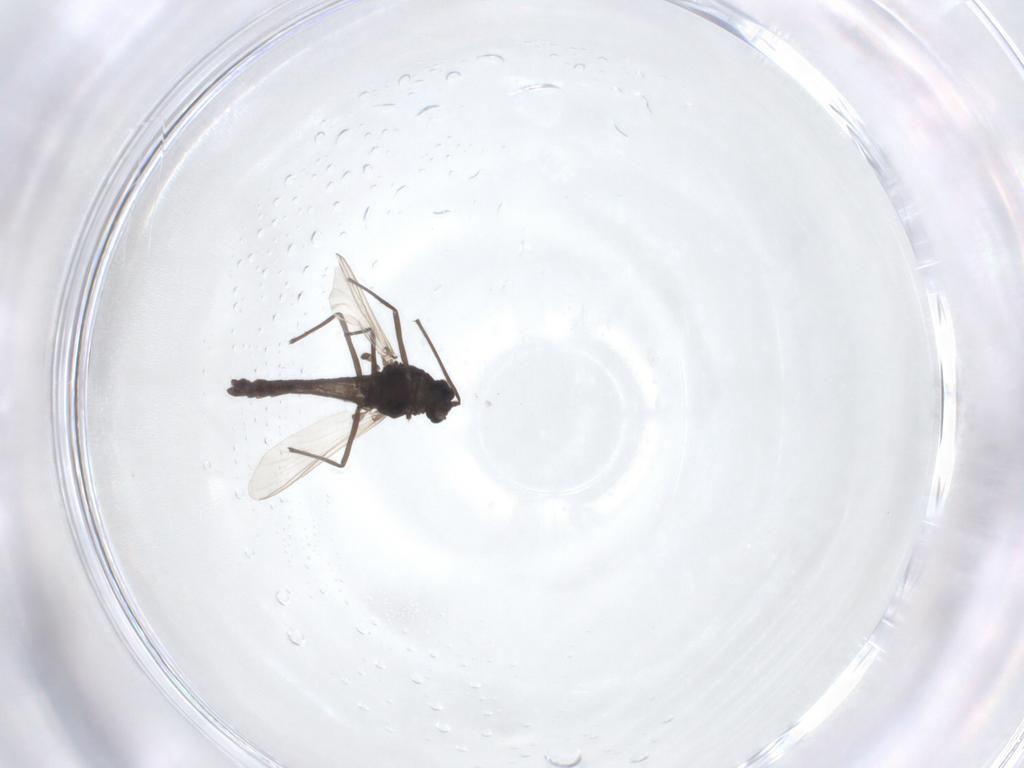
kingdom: Animalia
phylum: Arthropoda
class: Insecta
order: Diptera
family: Chironomidae
